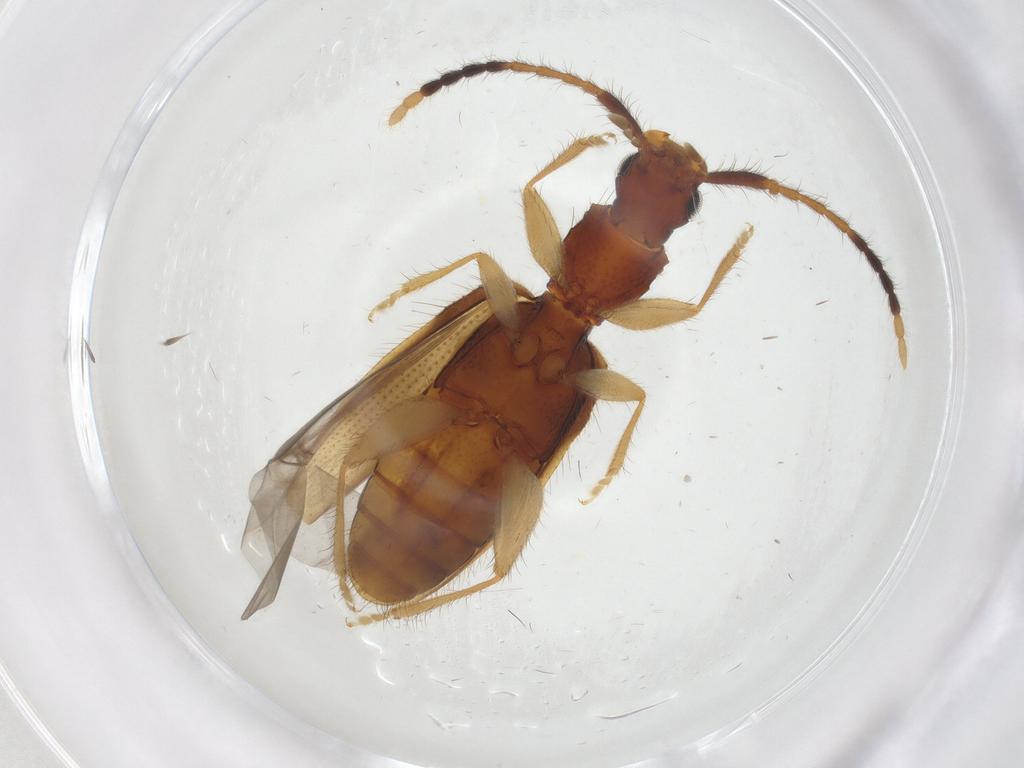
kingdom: Animalia
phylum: Arthropoda
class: Insecta
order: Coleoptera
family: Silvanidae
